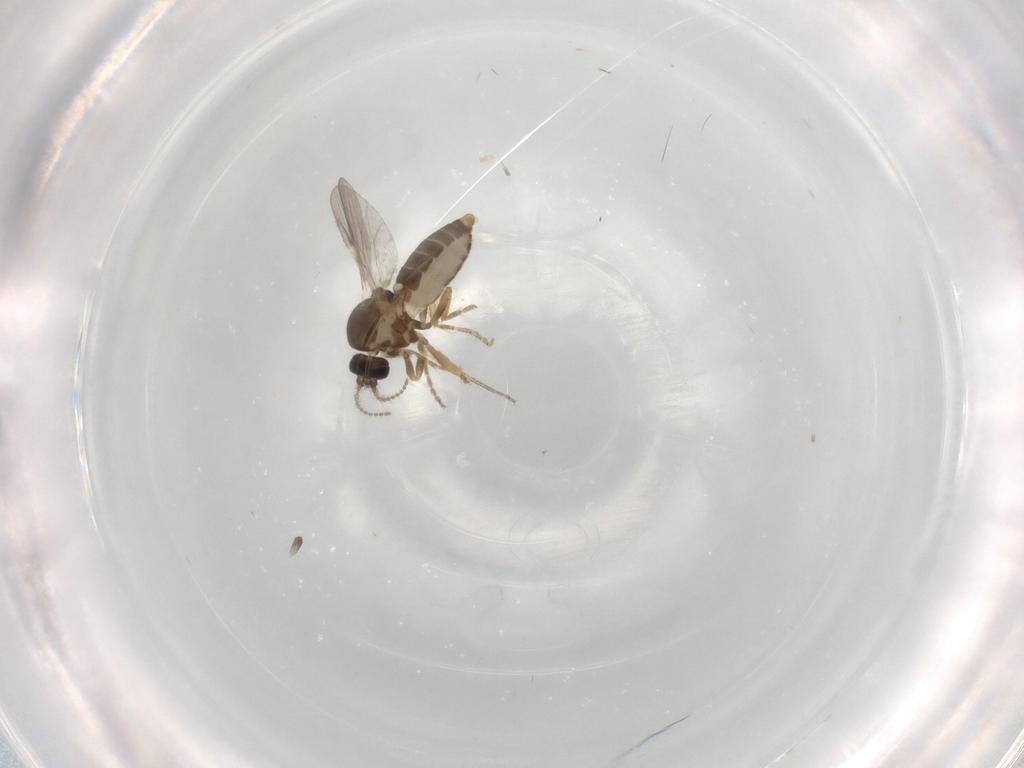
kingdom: Animalia
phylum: Arthropoda
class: Insecta
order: Diptera
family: Ceratopogonidae
